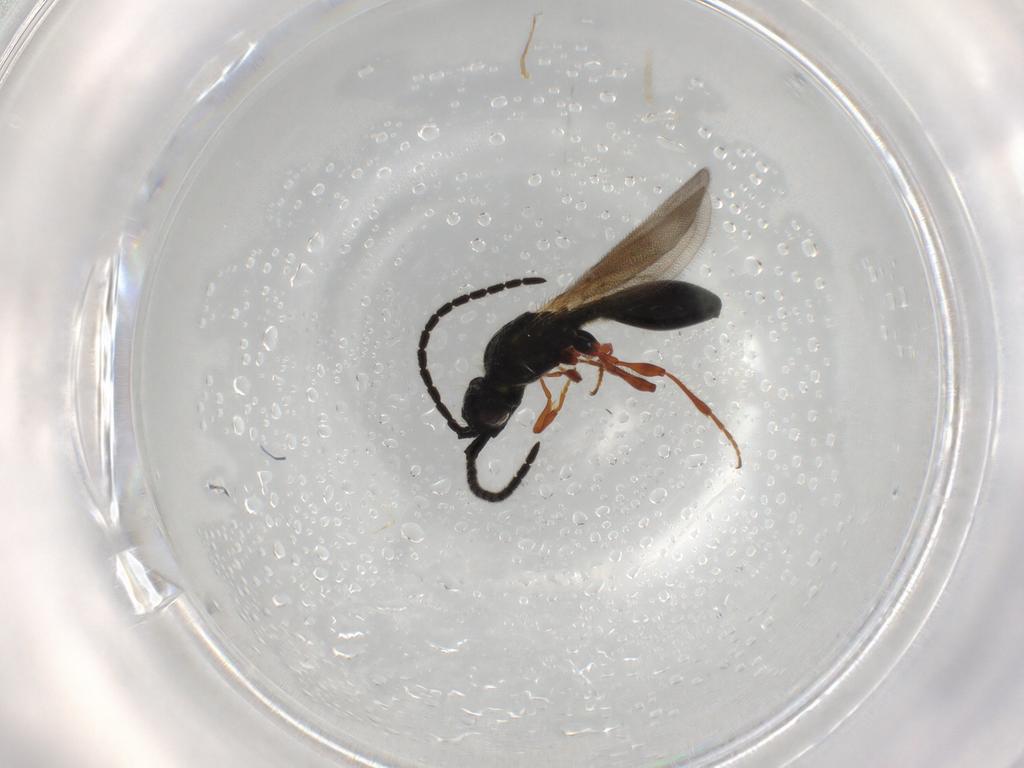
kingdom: Animalia
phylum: Arthropoda
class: Insecta
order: Hymenoptera
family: Diapriidae
